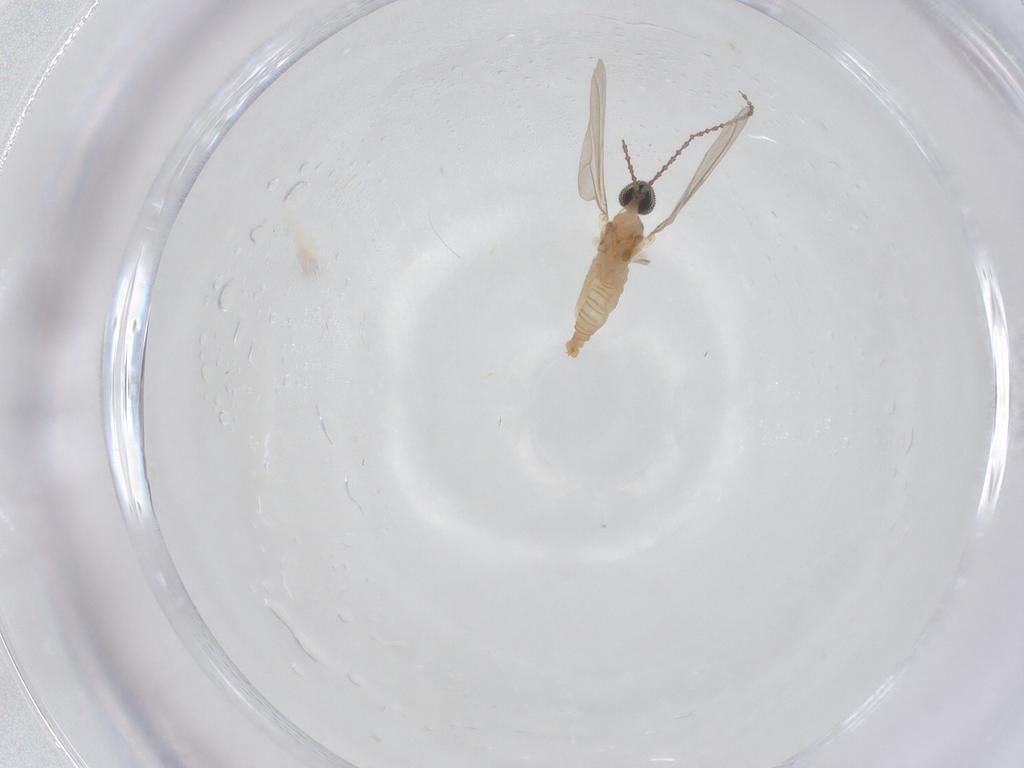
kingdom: Animalia
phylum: Arthropoda
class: Insecta
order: Diptera
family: Cecidomyiidae
